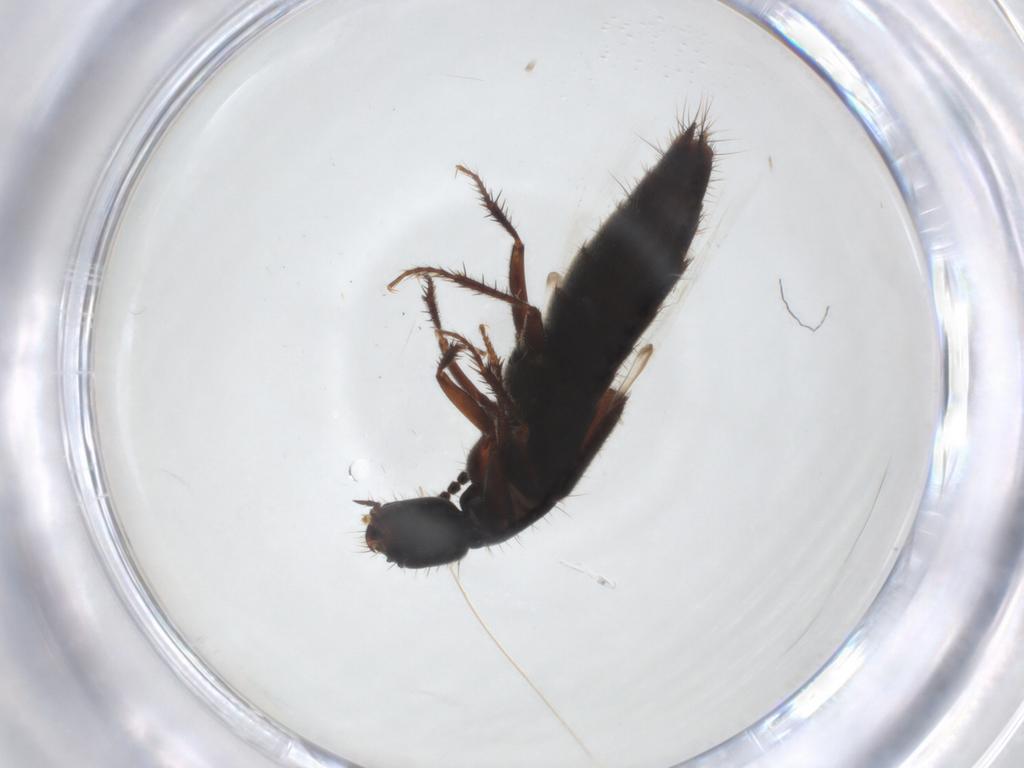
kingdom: Animalia
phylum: Arthropoda
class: Insecta
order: Coleoptera
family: Staphylinidae
